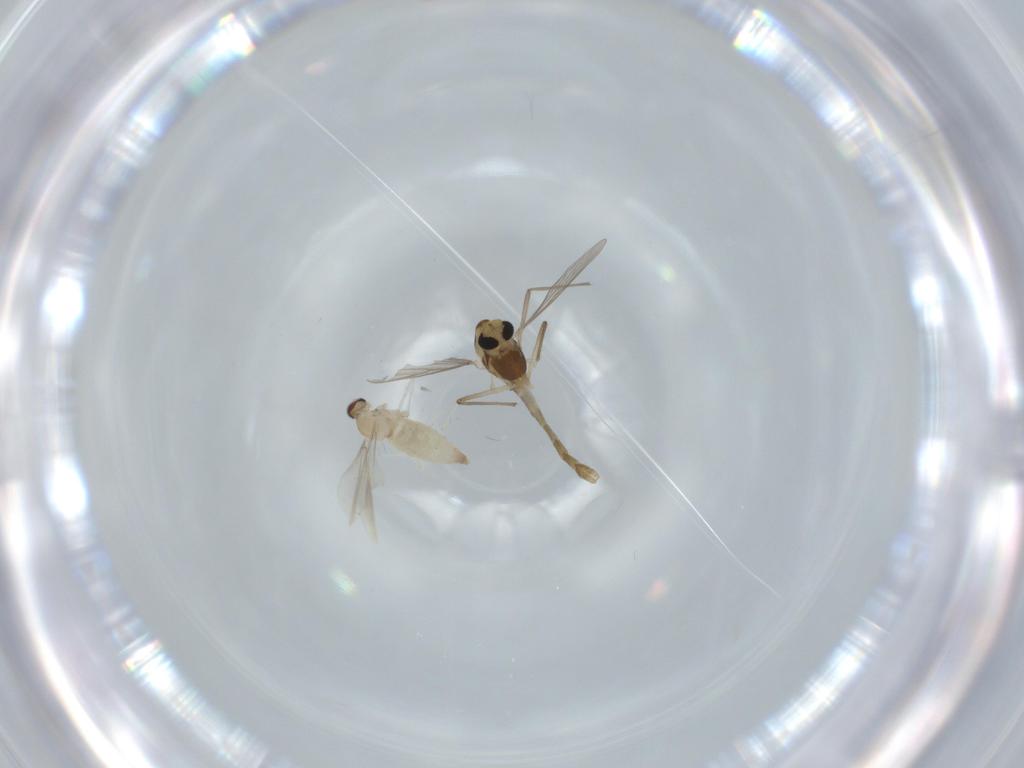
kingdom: Animalia
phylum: Arthropoda
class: Insecta
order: Diptera
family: Cecidomyiidae
